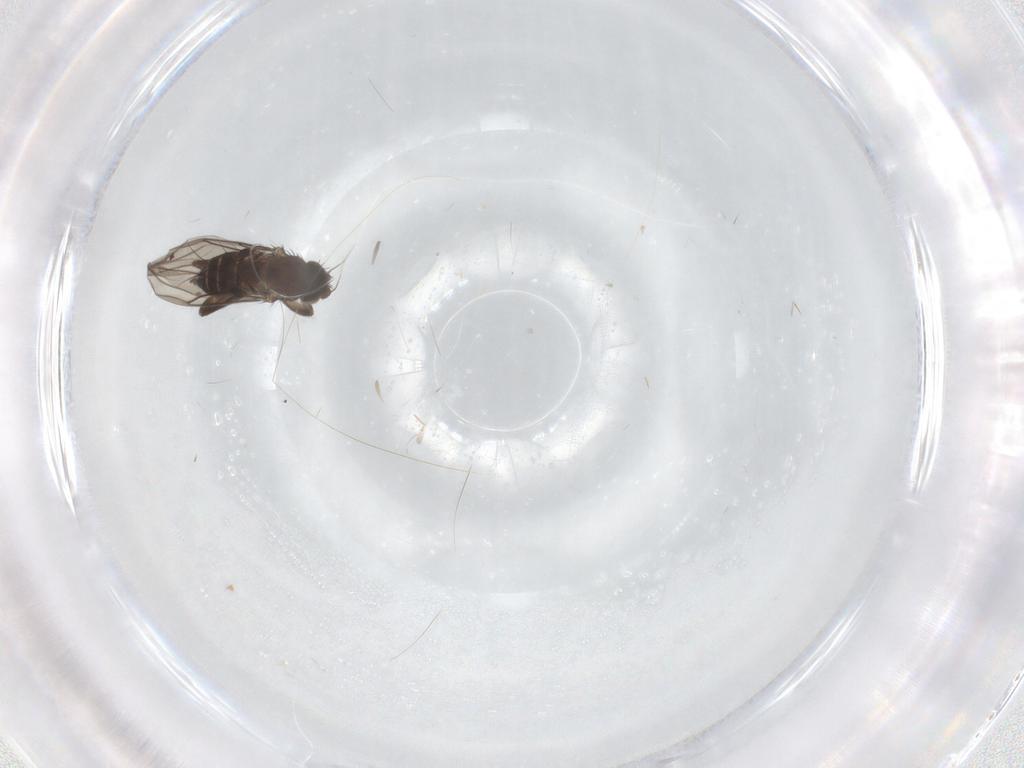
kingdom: Animalia
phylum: Arthropoda
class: Insecta
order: Diptera
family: Phoridae
